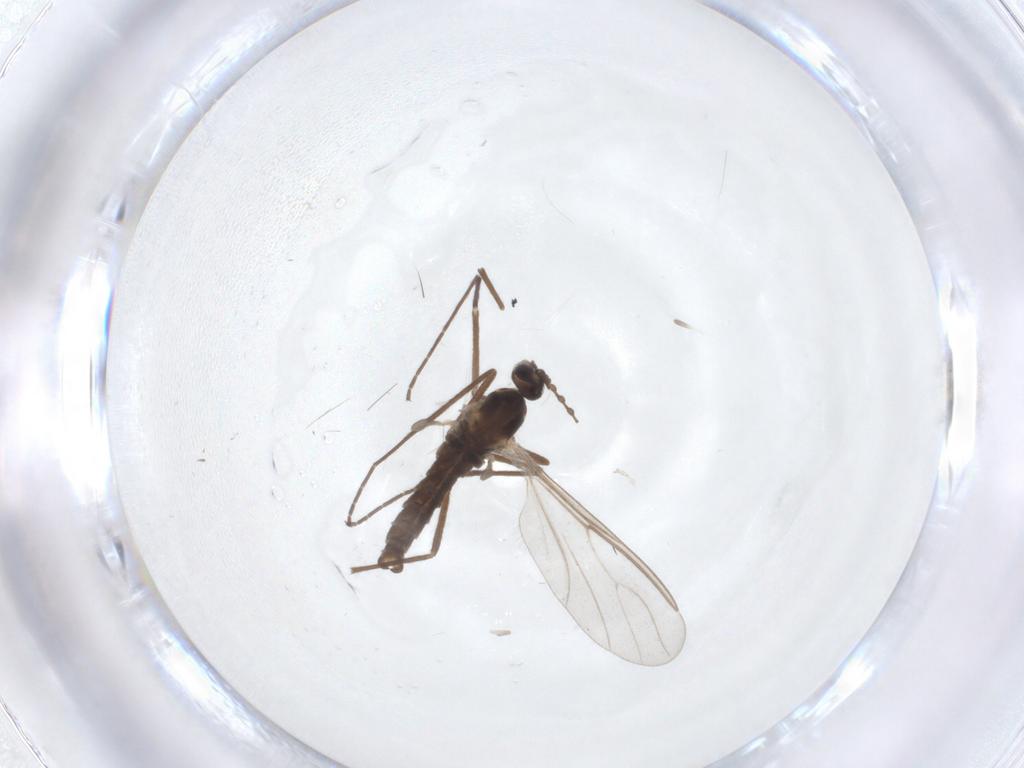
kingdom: Animalia
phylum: Arthropoda
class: Insecta
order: Diptera
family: Cecidomyiidae
